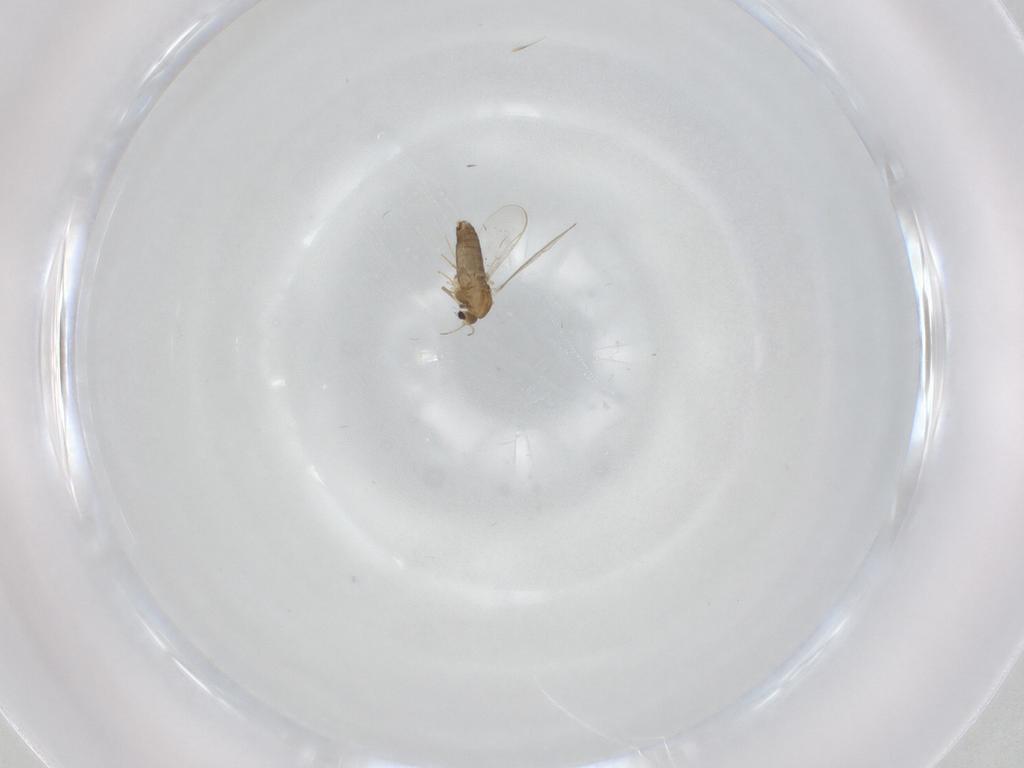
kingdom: Animalia
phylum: Arthropoda
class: Insecta
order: Diptera
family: Chironomidae
